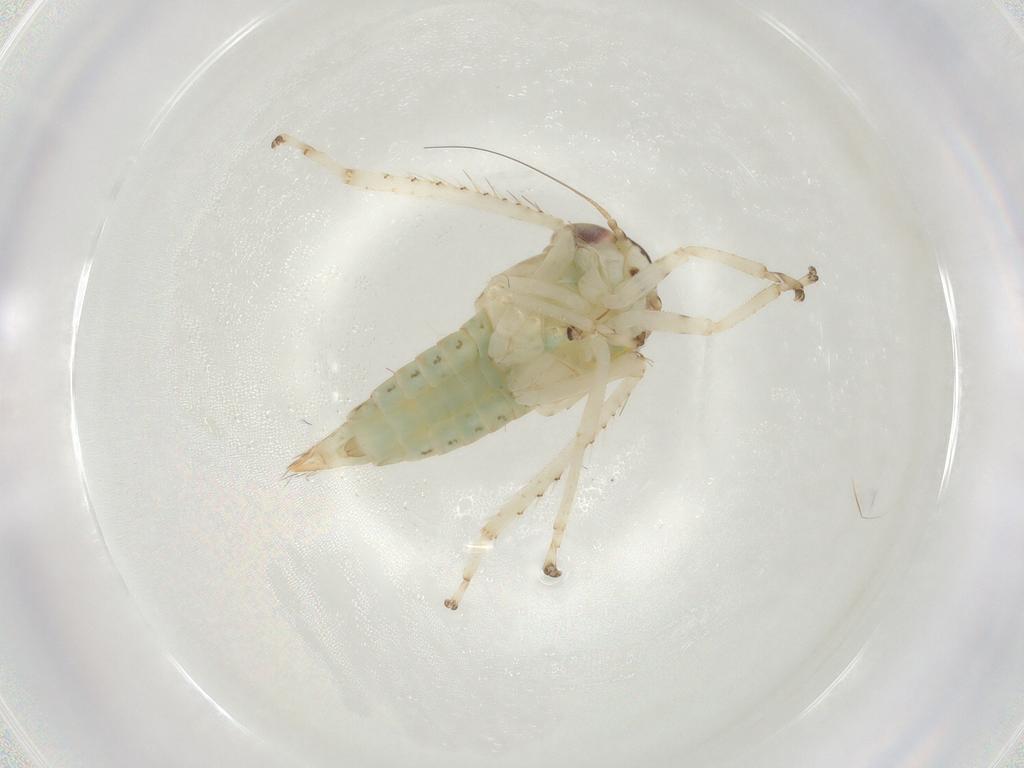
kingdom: Animalia
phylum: Arthropoda
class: Insecta
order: Hemiptera
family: Cicadellidae
